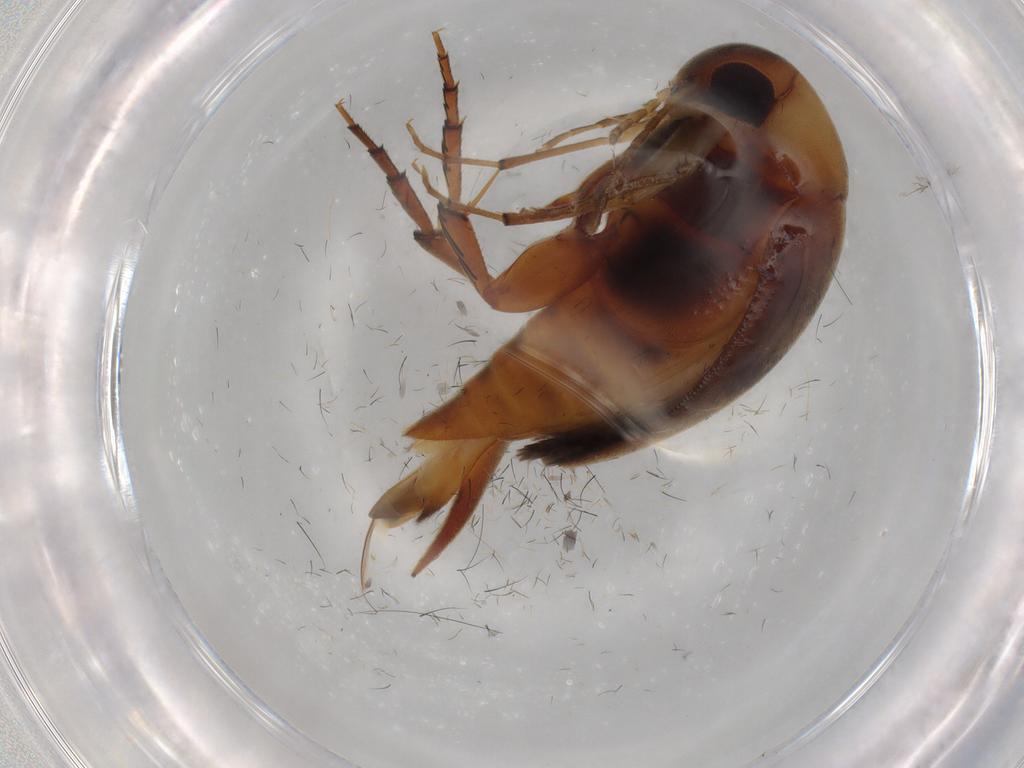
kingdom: Animalia
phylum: Arthropoda
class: Insecta
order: Coleoptera
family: Mordellidae
